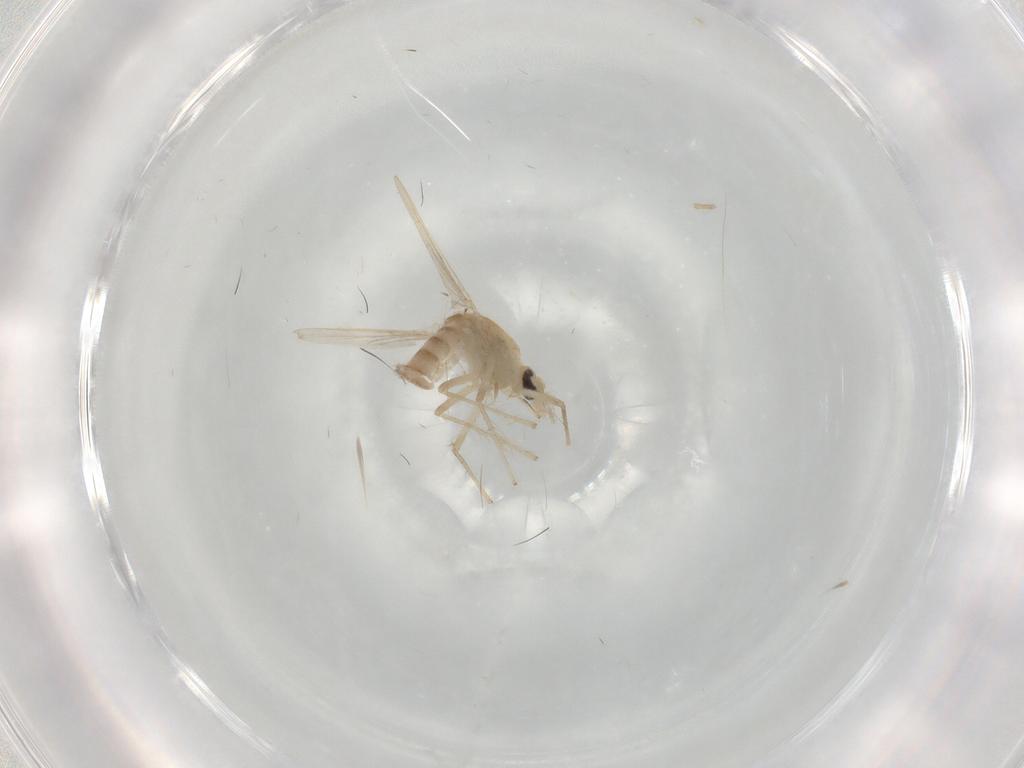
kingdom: Animalia
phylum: Arthropoda
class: Insecta
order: Diptera
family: Chironomidae
